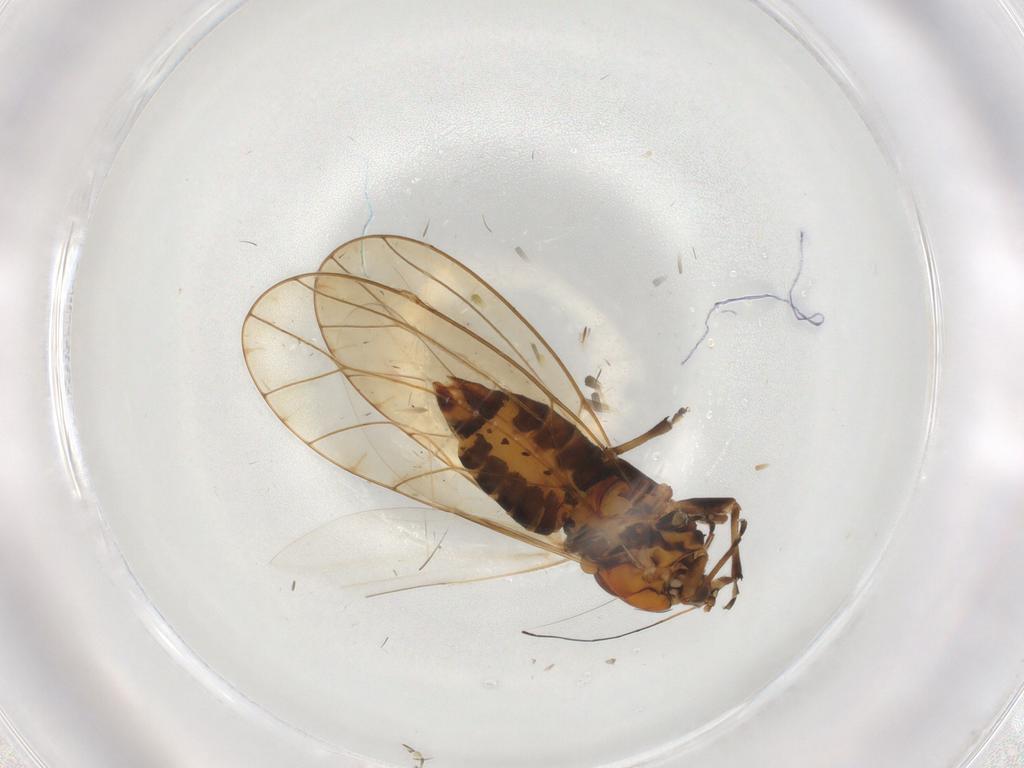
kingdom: Animalia
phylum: Arthropoda
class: Insecta
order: Hemiptera
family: Triozidae
